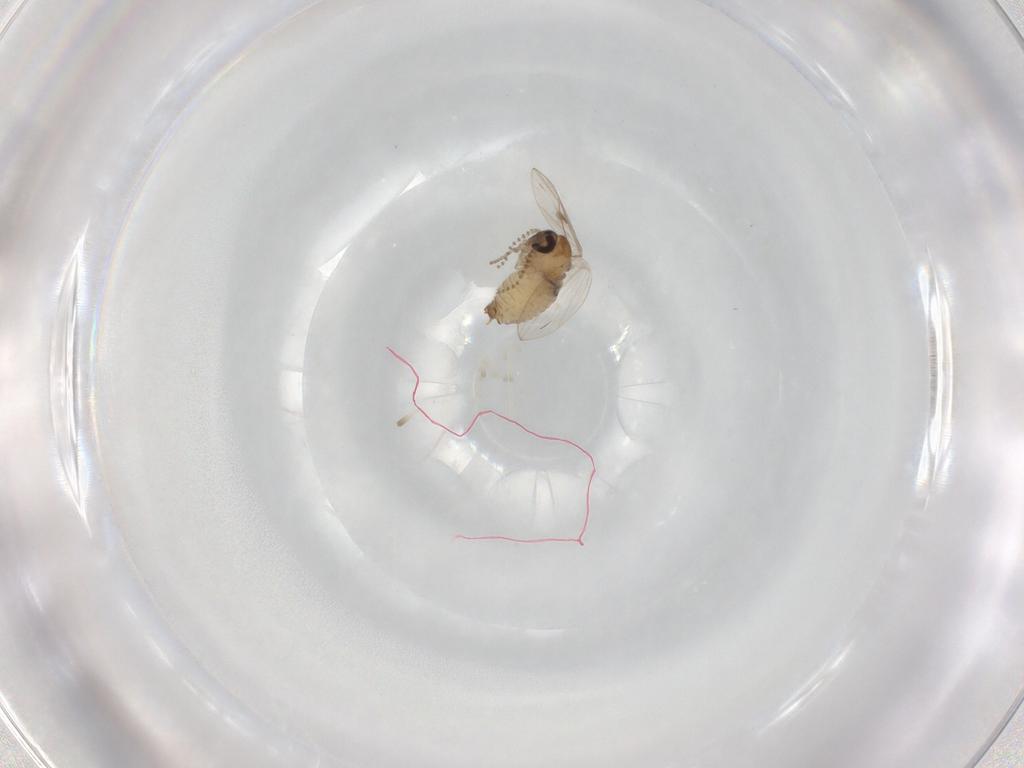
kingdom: Animalia
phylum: Arthropoda
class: Insecta
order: Diptera
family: Psychodidae
